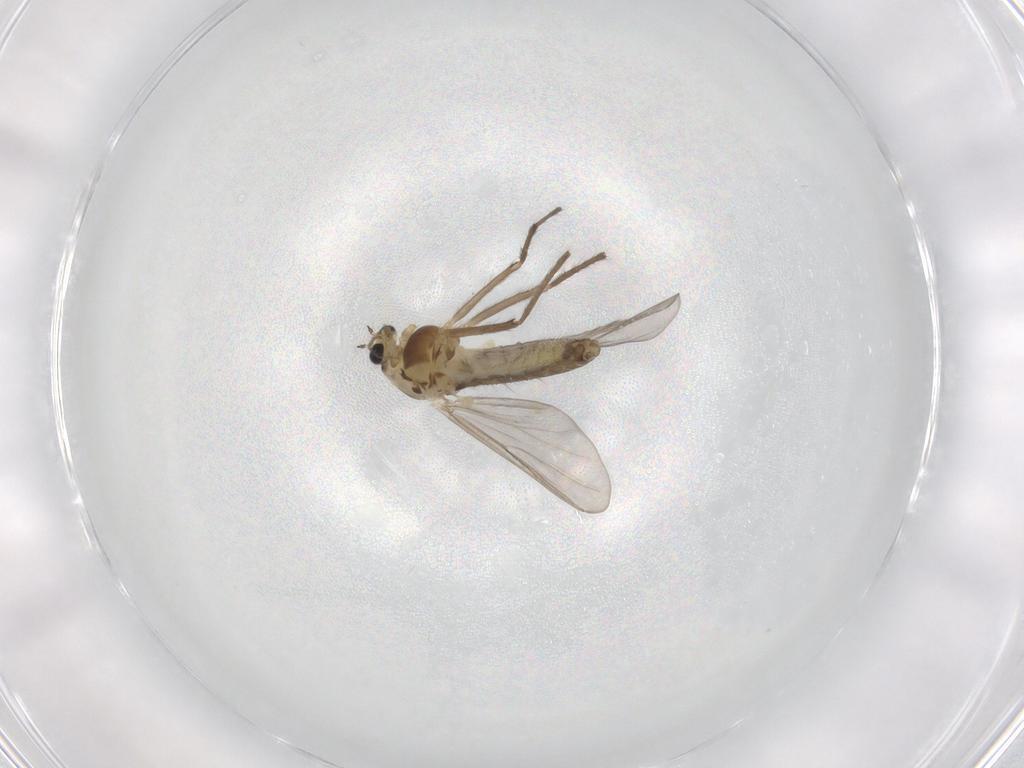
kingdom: Animalia
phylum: Arthropoda
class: Insecta
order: Diptera
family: Chironomidae
